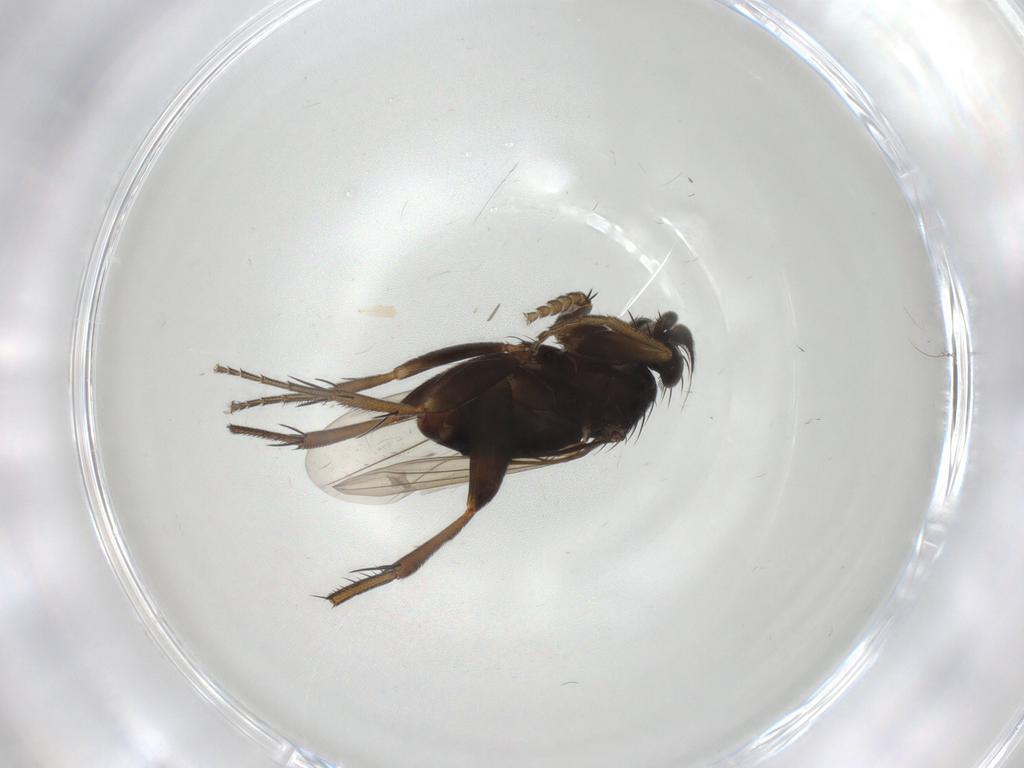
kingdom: Animalia
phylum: Arthropoda
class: Insecta
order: Diptera
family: Phoridae
